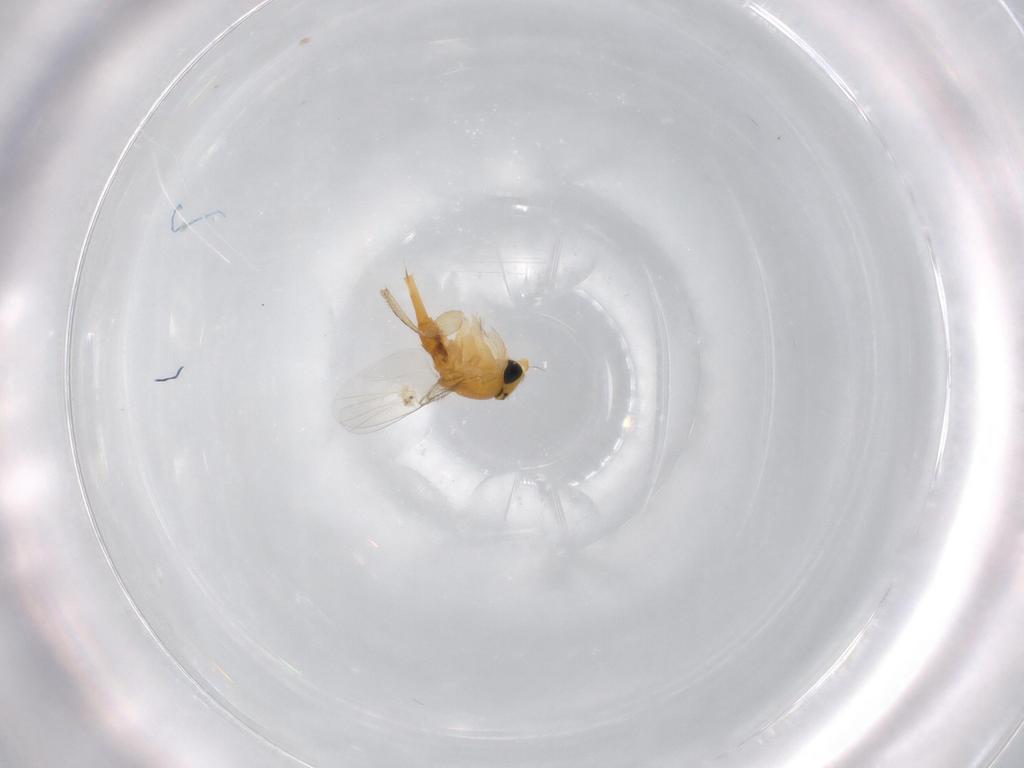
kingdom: Animalia
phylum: Arthropoda
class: Insecta
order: Diptera
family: Phoridae
